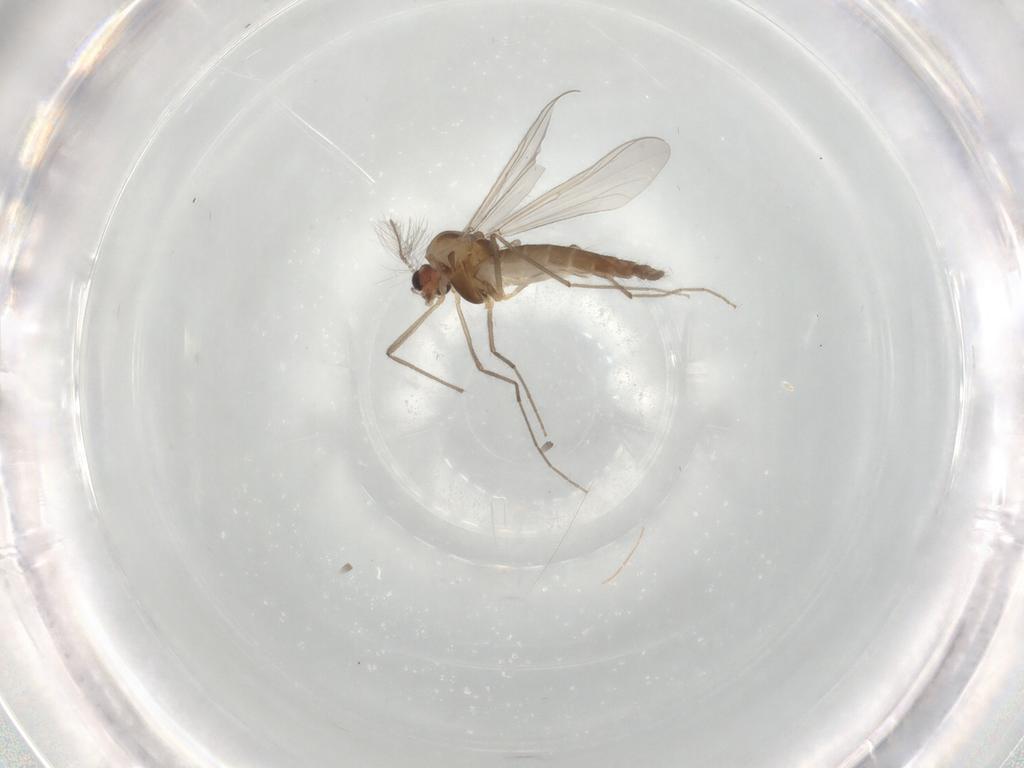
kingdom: Animalia
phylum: Arthropoda
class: Insecta
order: Diptera
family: Chironomidae
